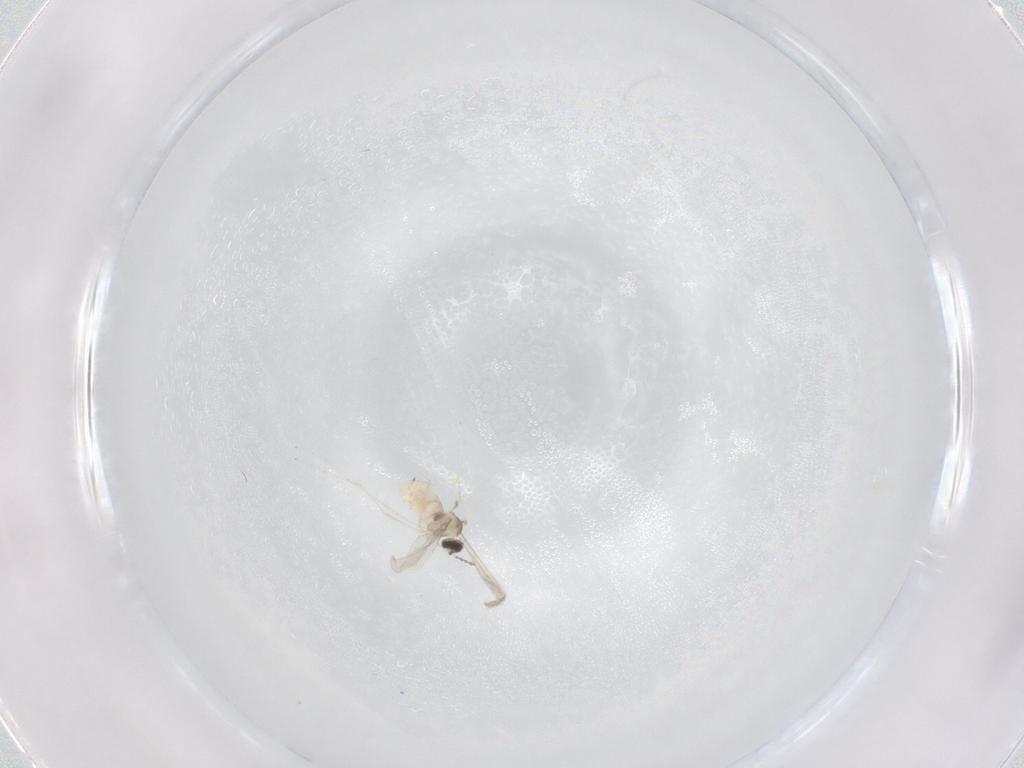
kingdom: Animalia
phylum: Arthropoda
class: Insecta
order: Diptera
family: Cecidomyiidae
